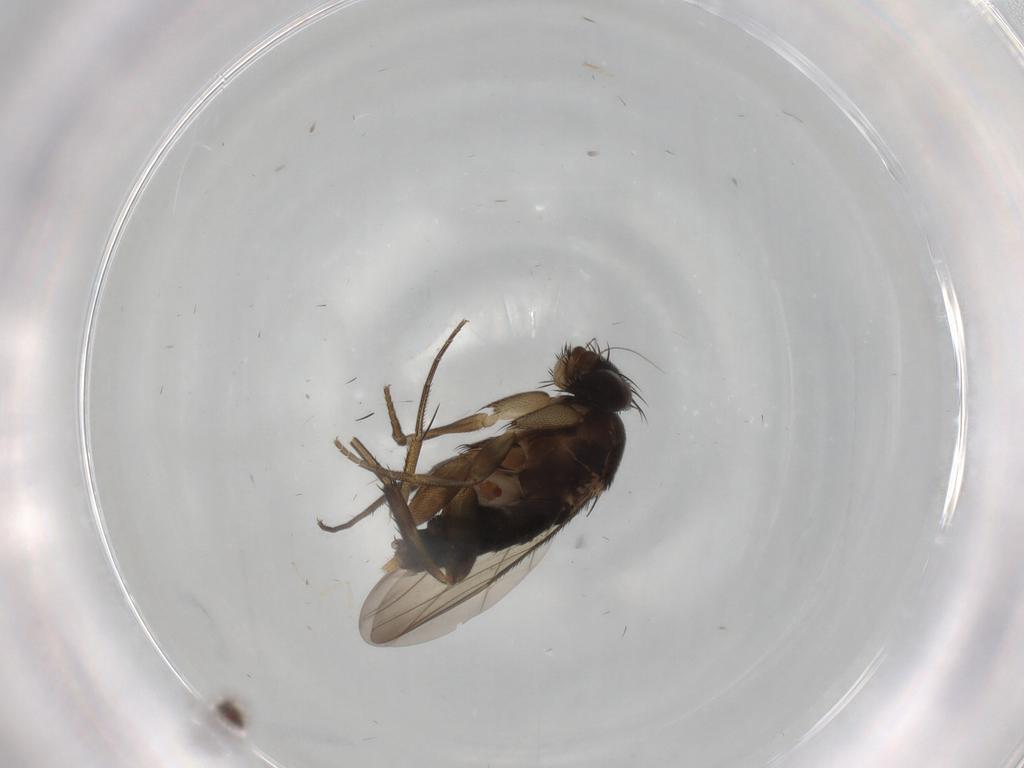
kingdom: Animalia
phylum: Arthropoda
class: Insecta
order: Diptera
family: Phoridae
